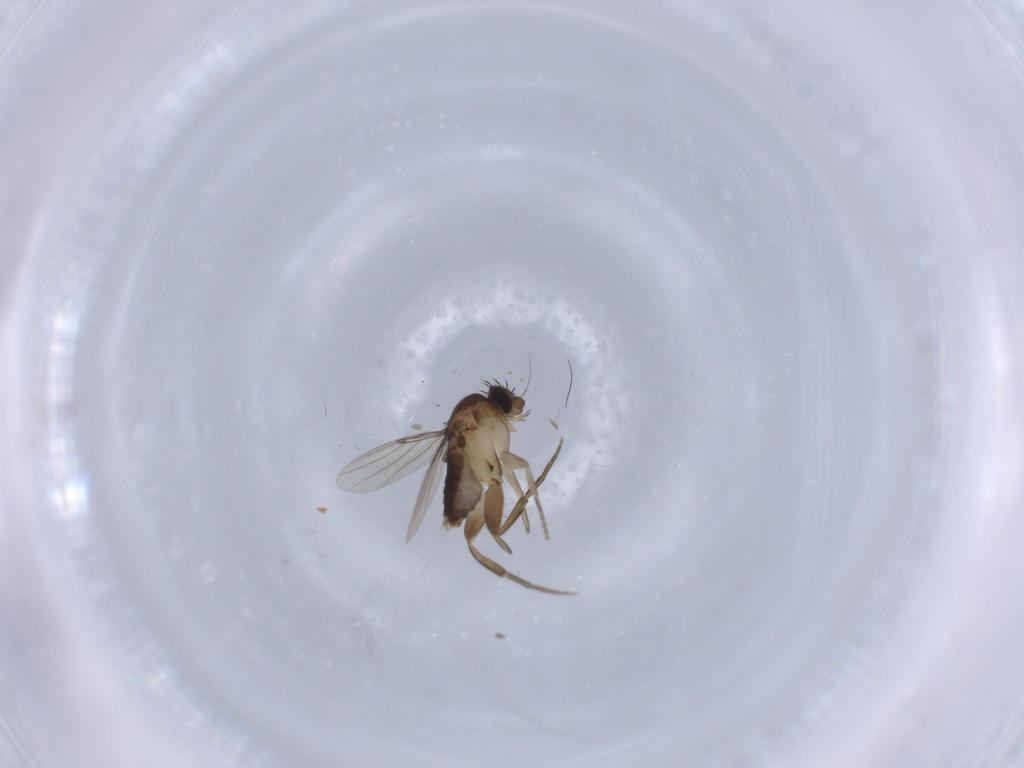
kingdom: Animalia
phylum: Arthropoda
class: Insecta
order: Diptera
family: Phoridae
